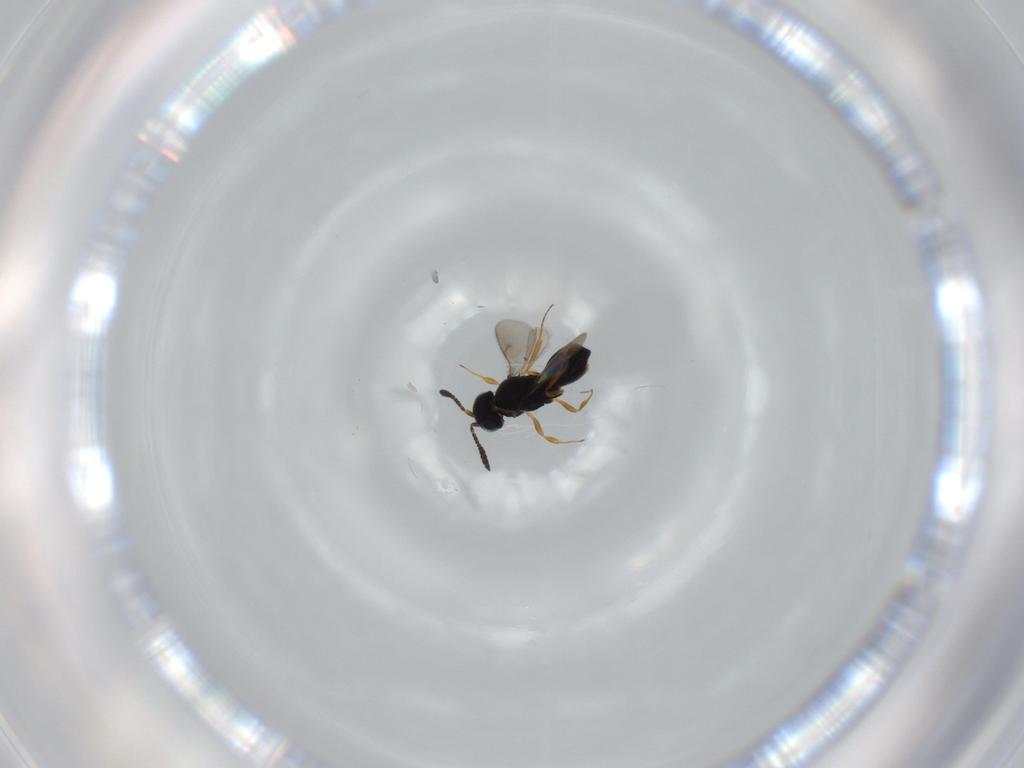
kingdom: Animalia
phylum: Arthropoda
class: Insecta
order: Hymenoptera
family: Scelionidae
